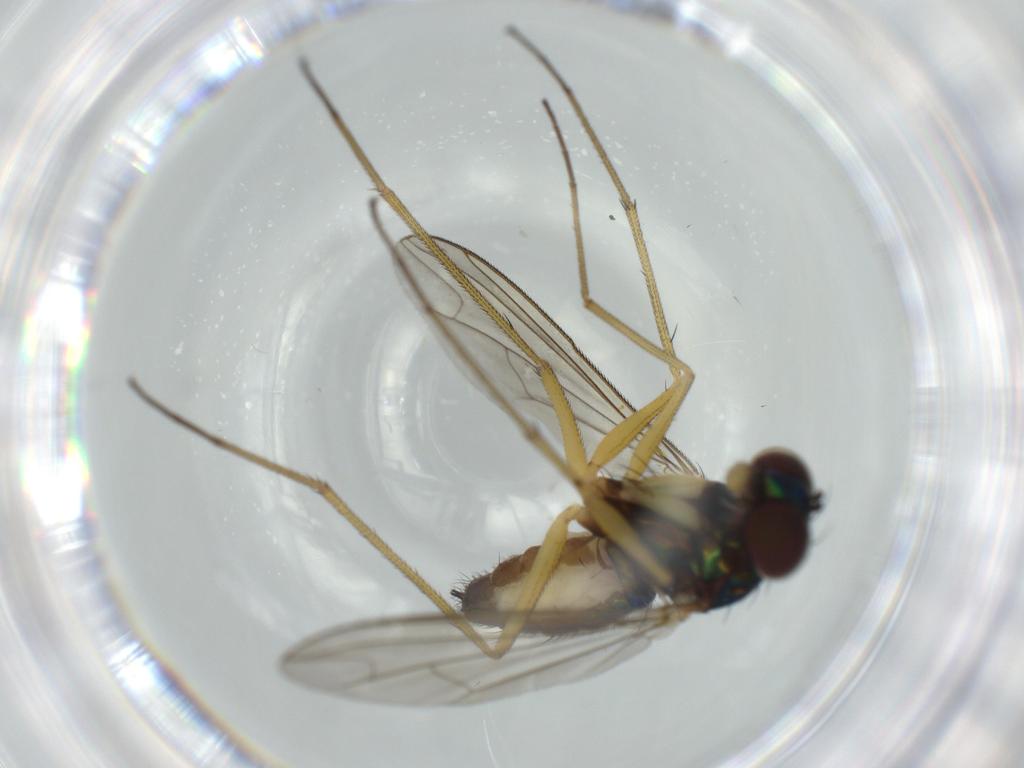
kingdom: Animalia
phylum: Arthropoda
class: Insecta
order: Diptera
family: Dolichopodidae
